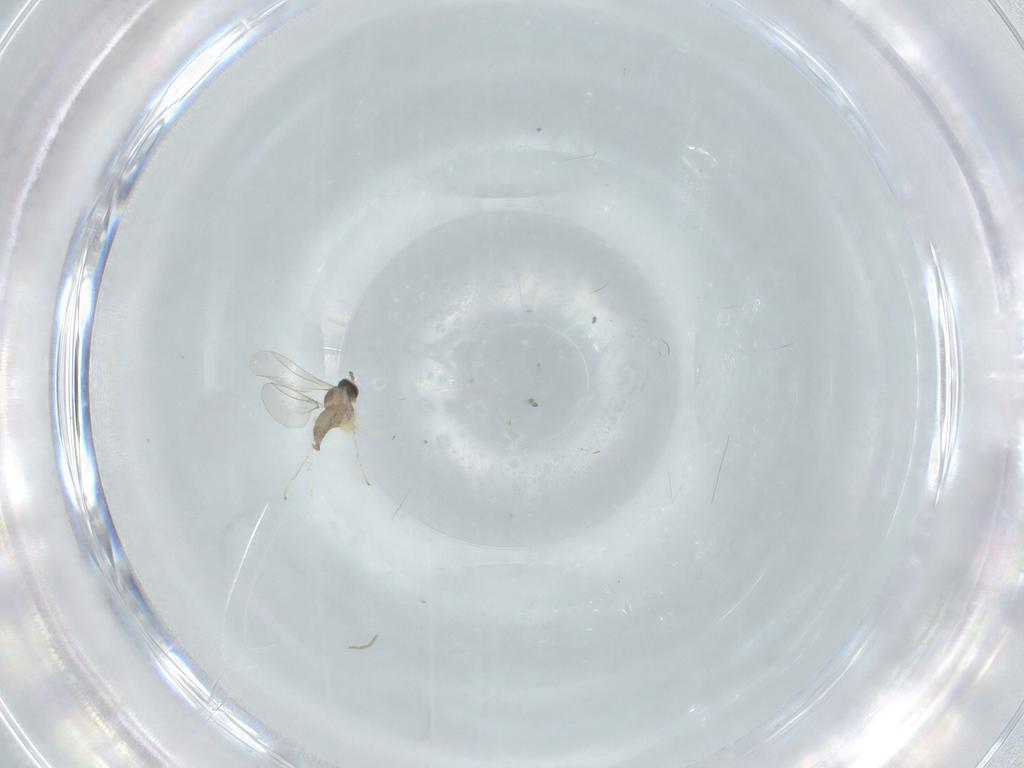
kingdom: Animalia
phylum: Arthropoda
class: Insecta
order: Diptera
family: Cecidomyiidae
